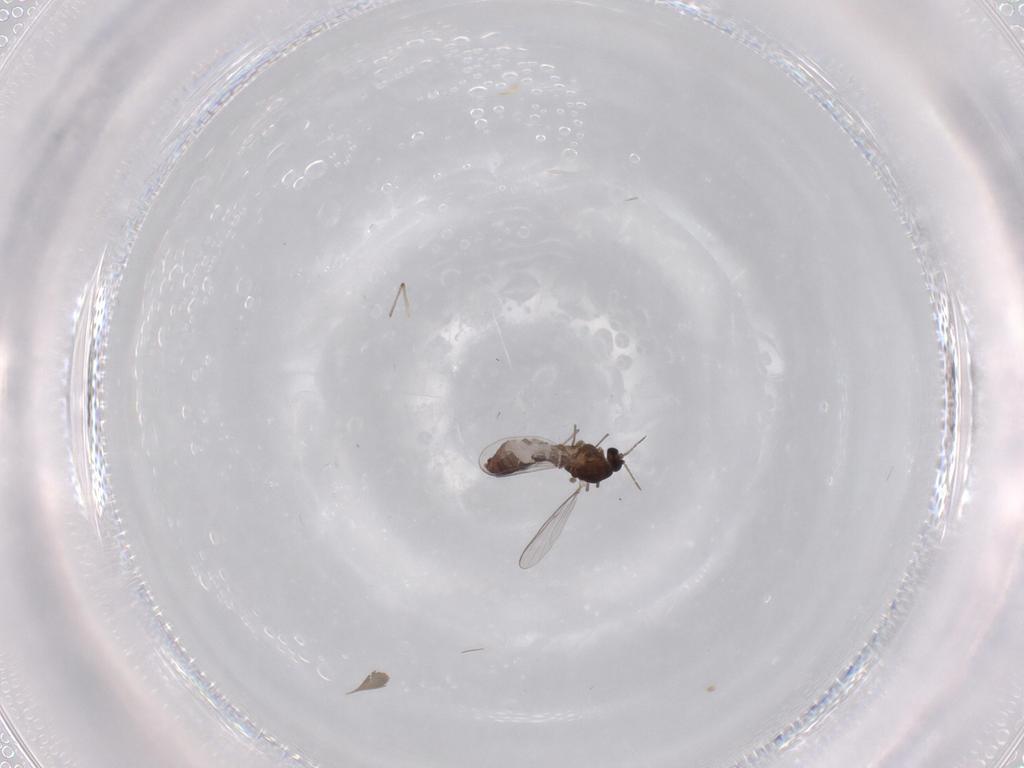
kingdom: Animalia
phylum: Arthropoda
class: Insecta
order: Diptera
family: Chironomidae
